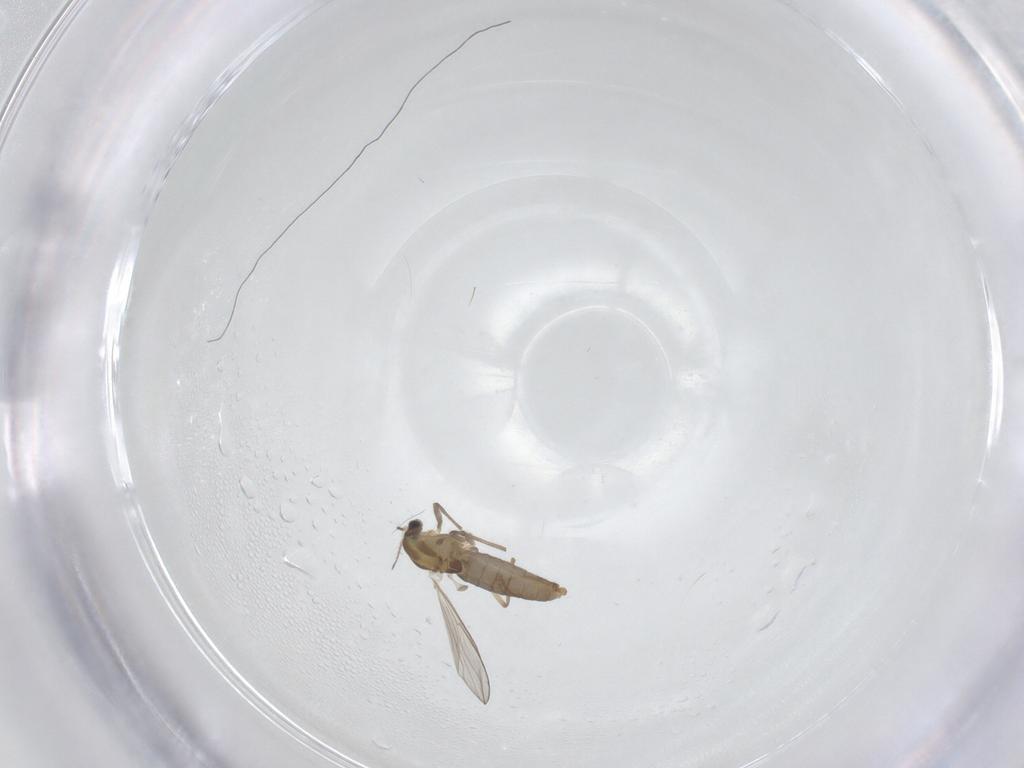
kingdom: Animalia
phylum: Arthropoda
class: Insecta
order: Diptera
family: Chironomidae
